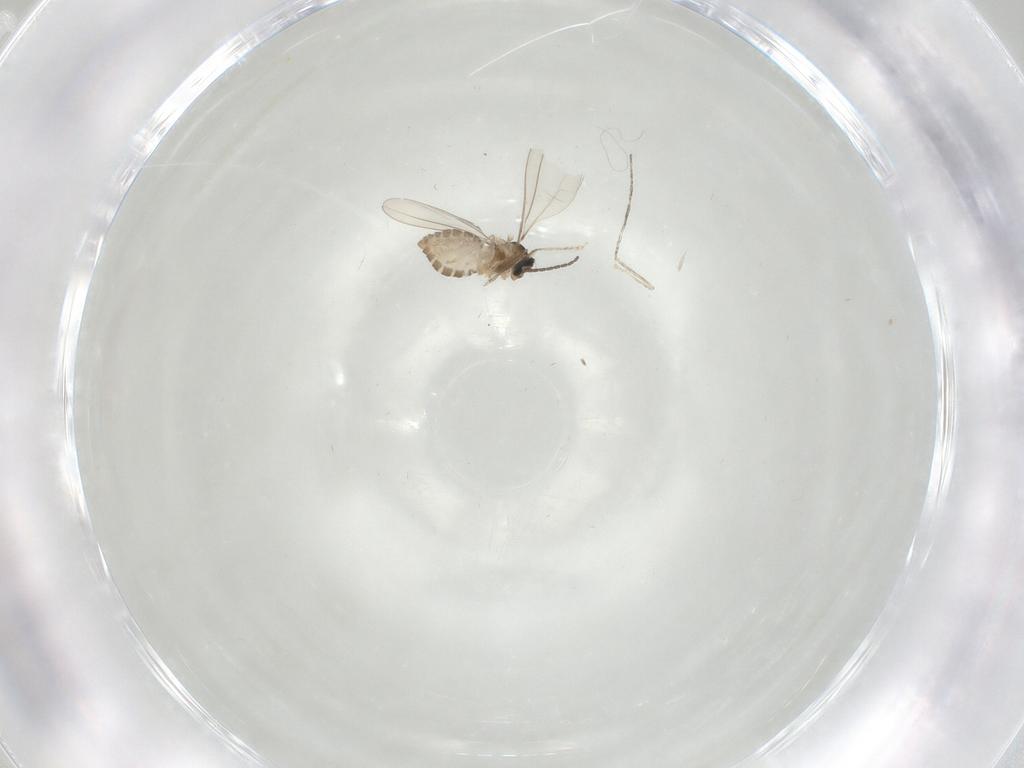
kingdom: Animalia
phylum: Arthropoda
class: Insecta
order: Diptera
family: Cecidomyiidae
